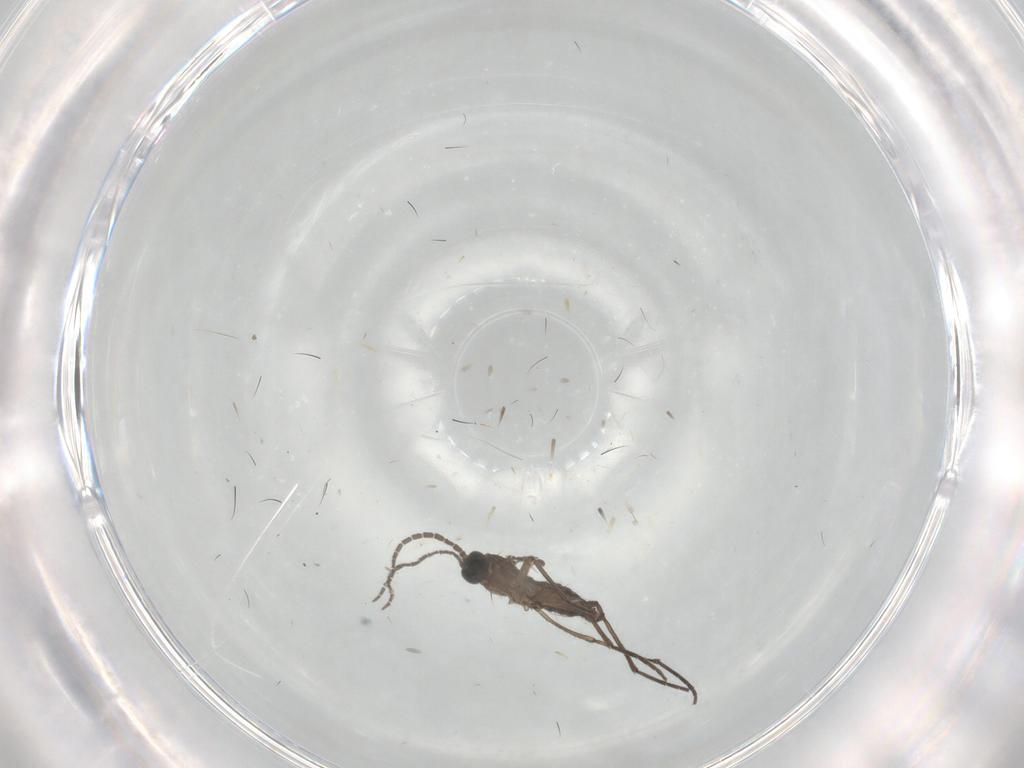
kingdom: Animalia
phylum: Arthropoda
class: Insecta
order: Diptera
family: Sciaridae
